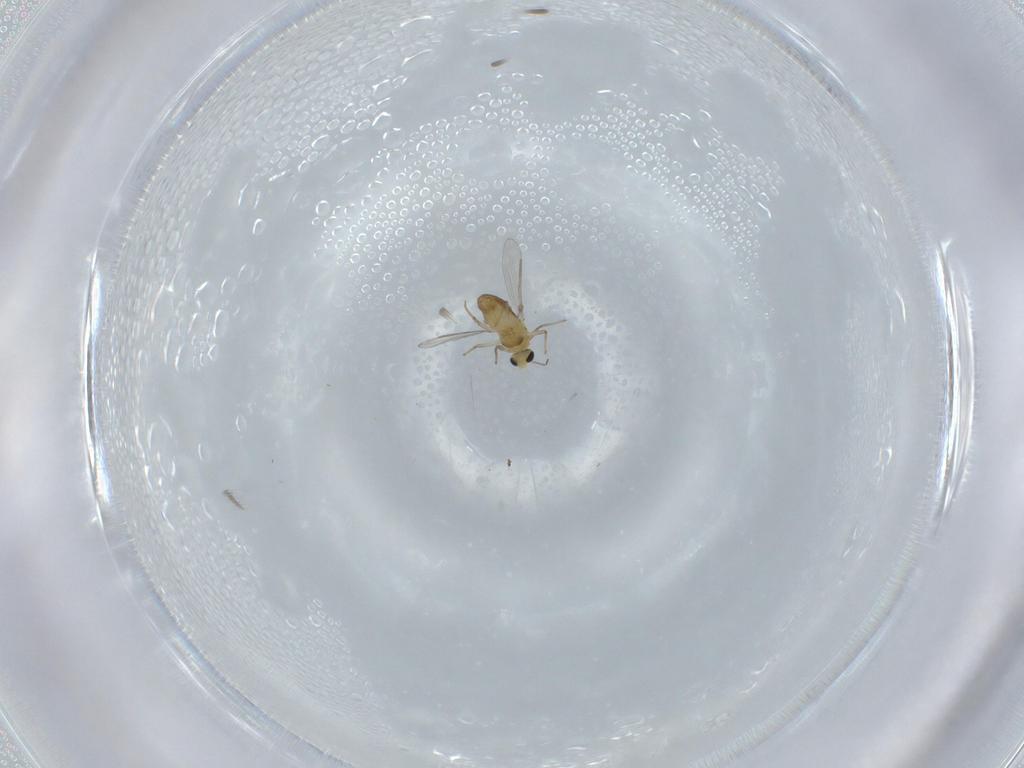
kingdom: Animalia
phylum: Arthropoda
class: Insecta
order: Diptera
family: Chironomidae
